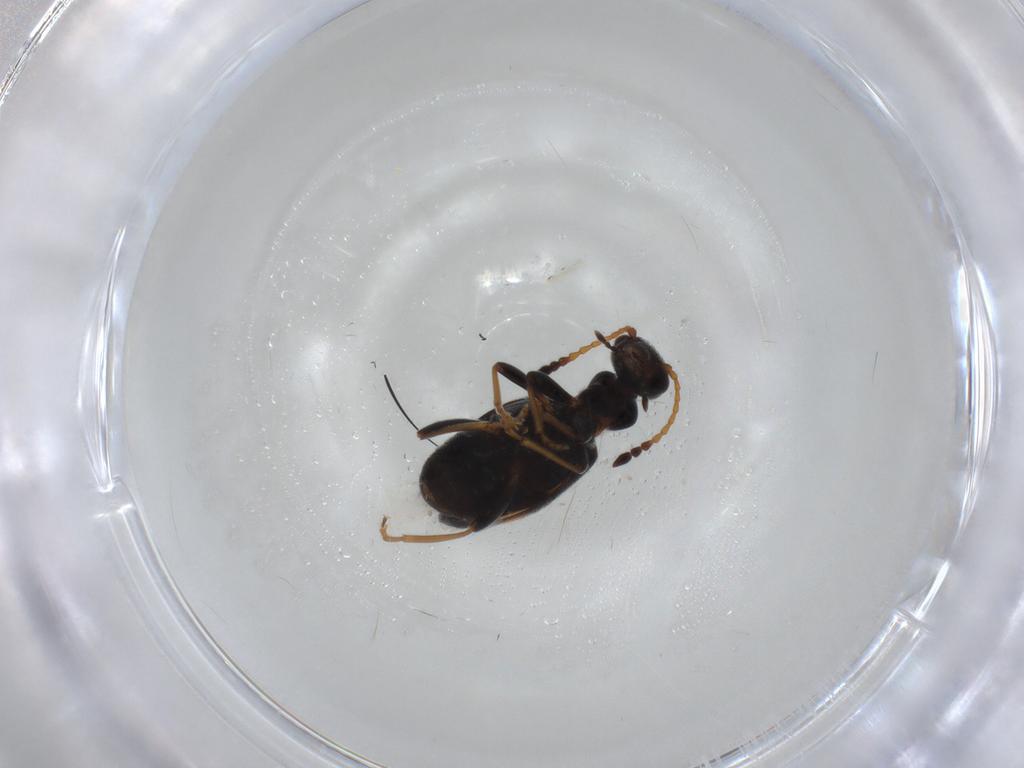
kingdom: Animalia
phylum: Arthropoda
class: Insecta
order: Coleoptera
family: Anthicidae
